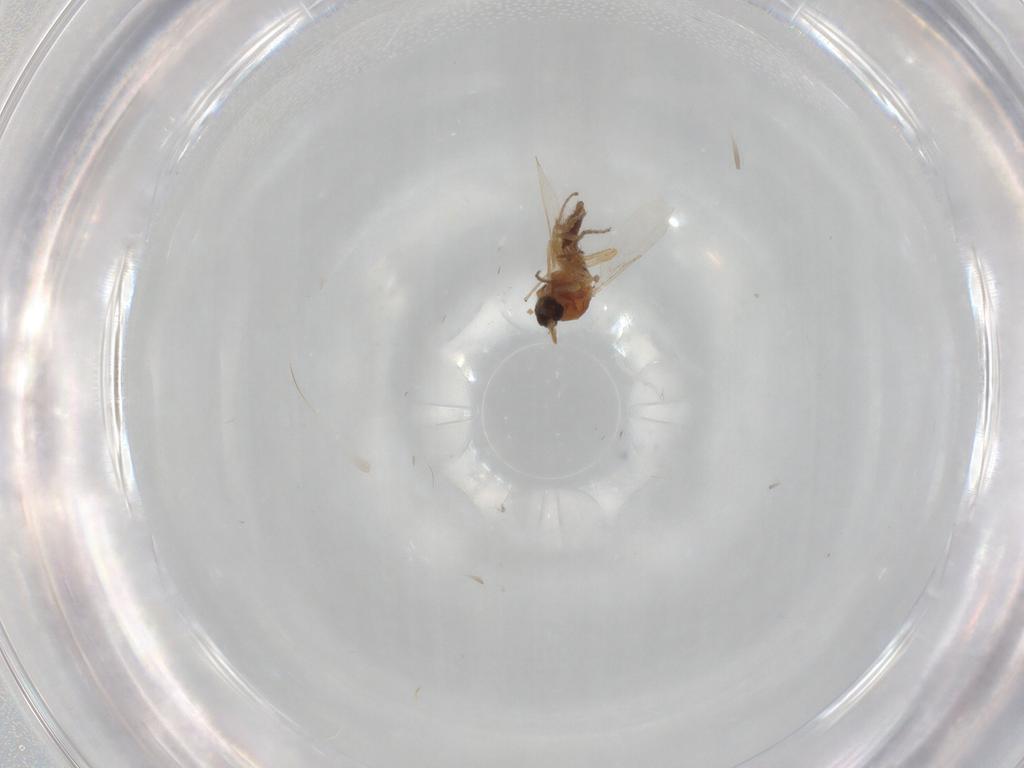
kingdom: Animalia
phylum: Arthropoda
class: Insecta
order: Diptera
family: Ceratopogonidae
